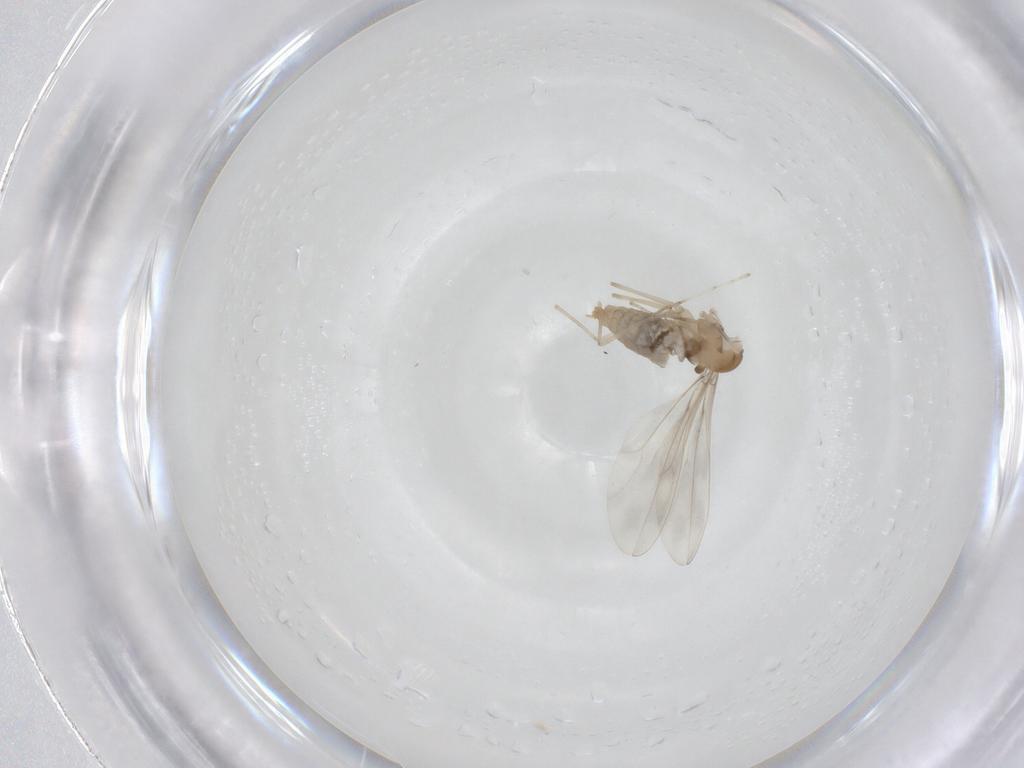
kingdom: Animalia
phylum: Arthropoda
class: Insecta
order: Diptera
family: Cecidomyiidae
